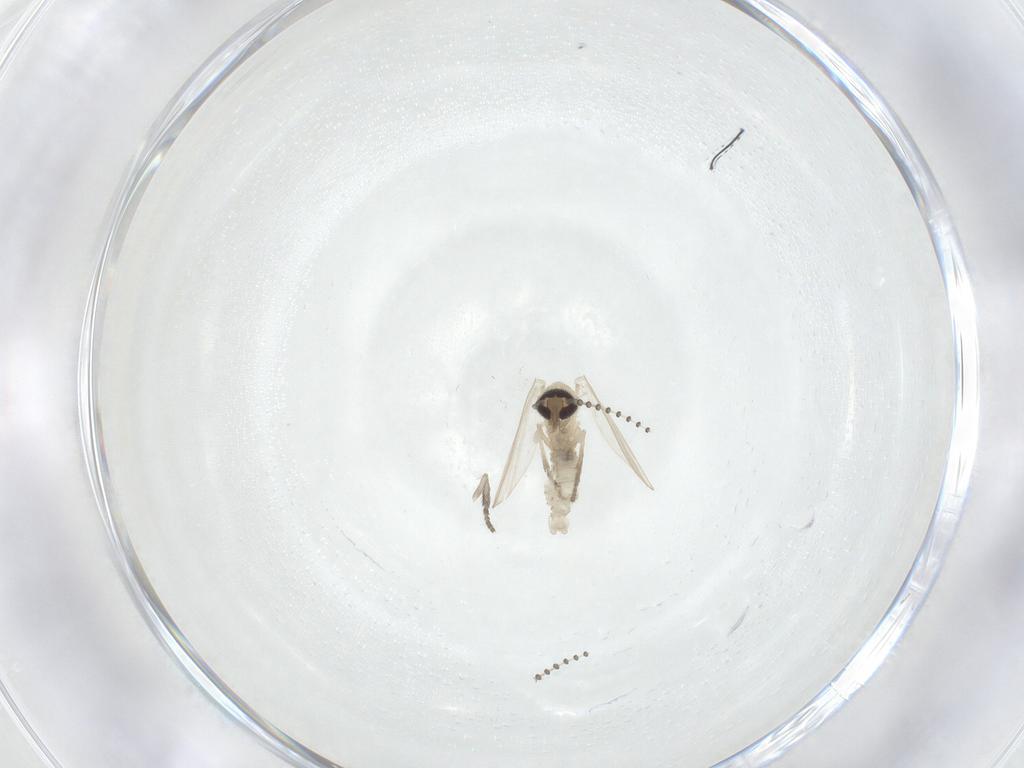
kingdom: Animalia
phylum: Arthropoda
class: Insecta
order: Diptera
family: Psychodidae
